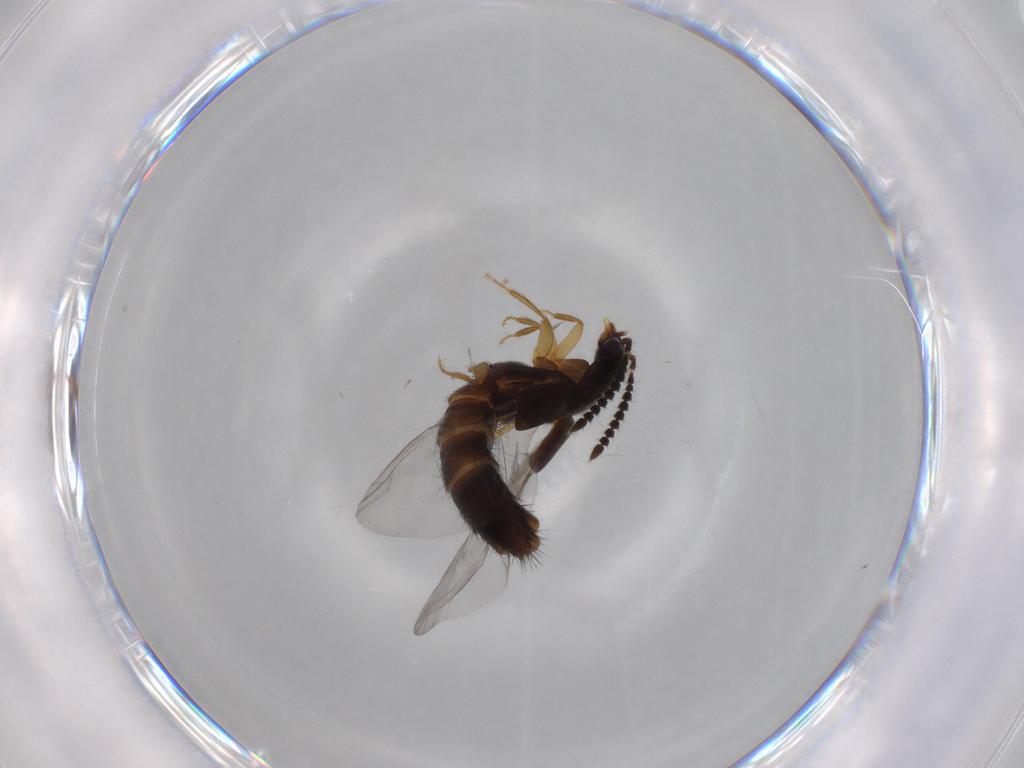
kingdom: Animalia
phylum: Arthropoda
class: Insecta
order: Coleoptera
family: Staphylinidae
